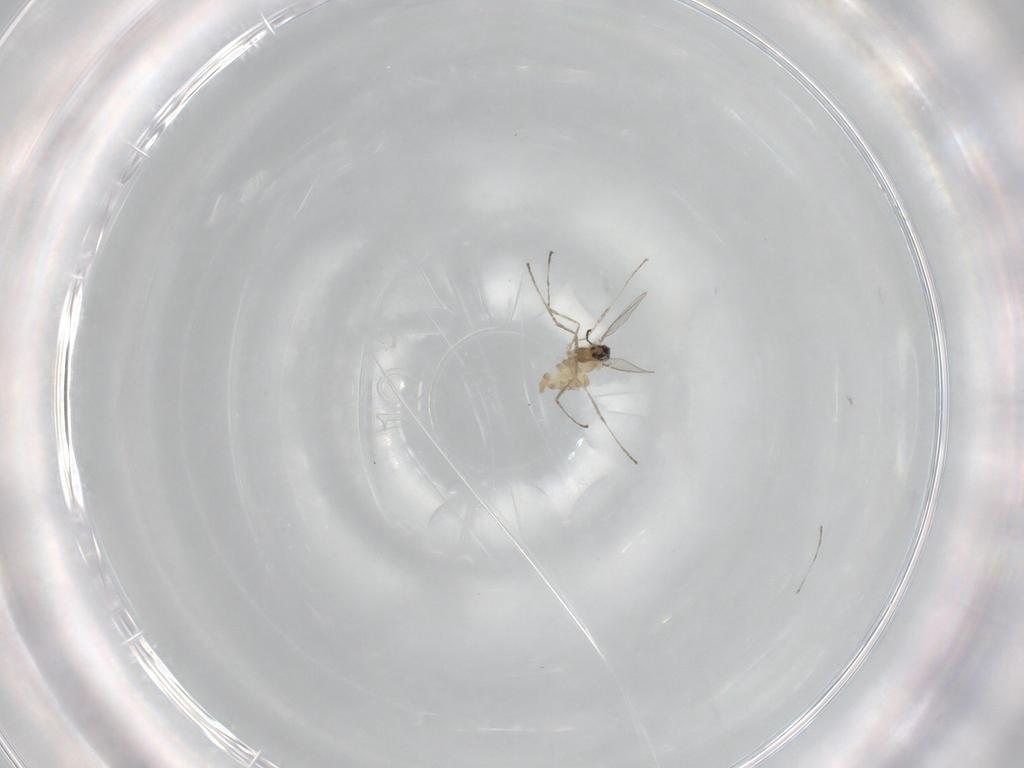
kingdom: Animalia
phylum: Arthropoda
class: Insecta
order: Diptera
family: Cecidomyiidae
